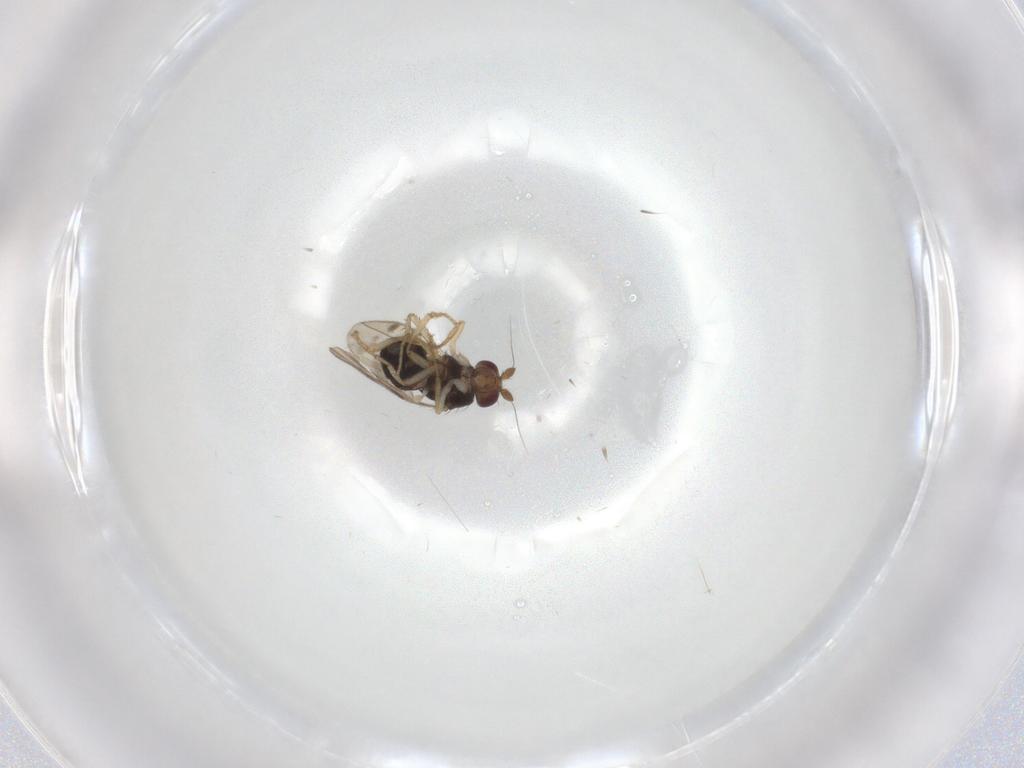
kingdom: Animalia
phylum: Arthropoda
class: Insecta
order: Diptera
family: Sphaeroceridae
